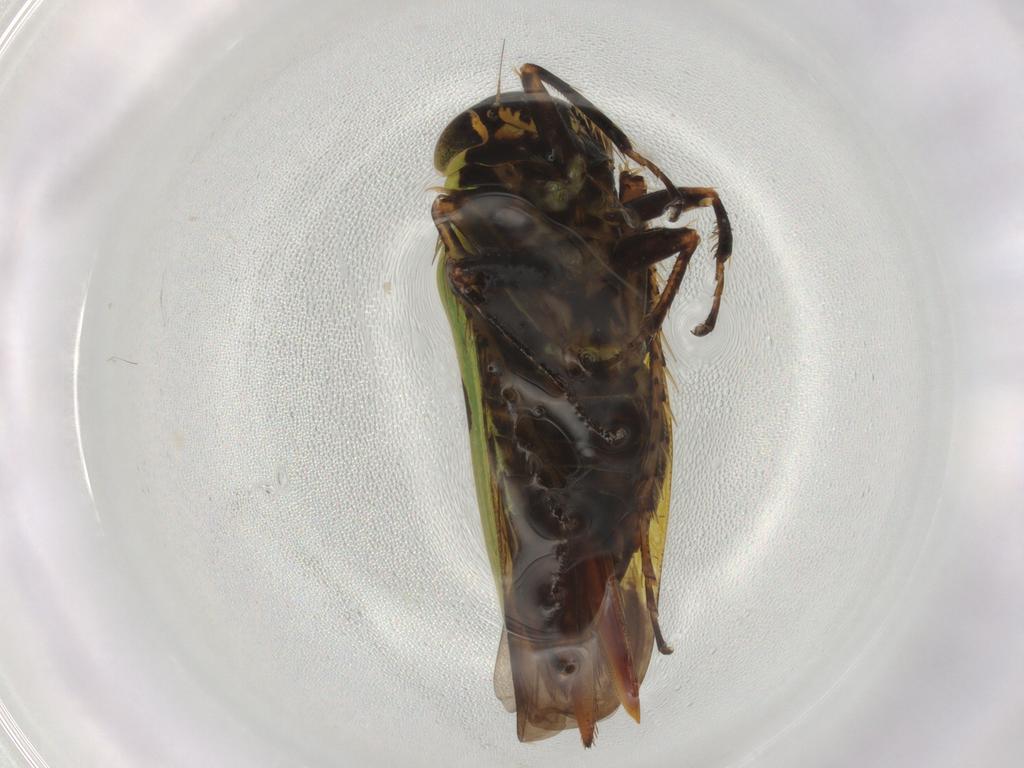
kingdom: Animalia
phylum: Arthropoda
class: Insecta
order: Hemiptera
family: Cicadellidae
